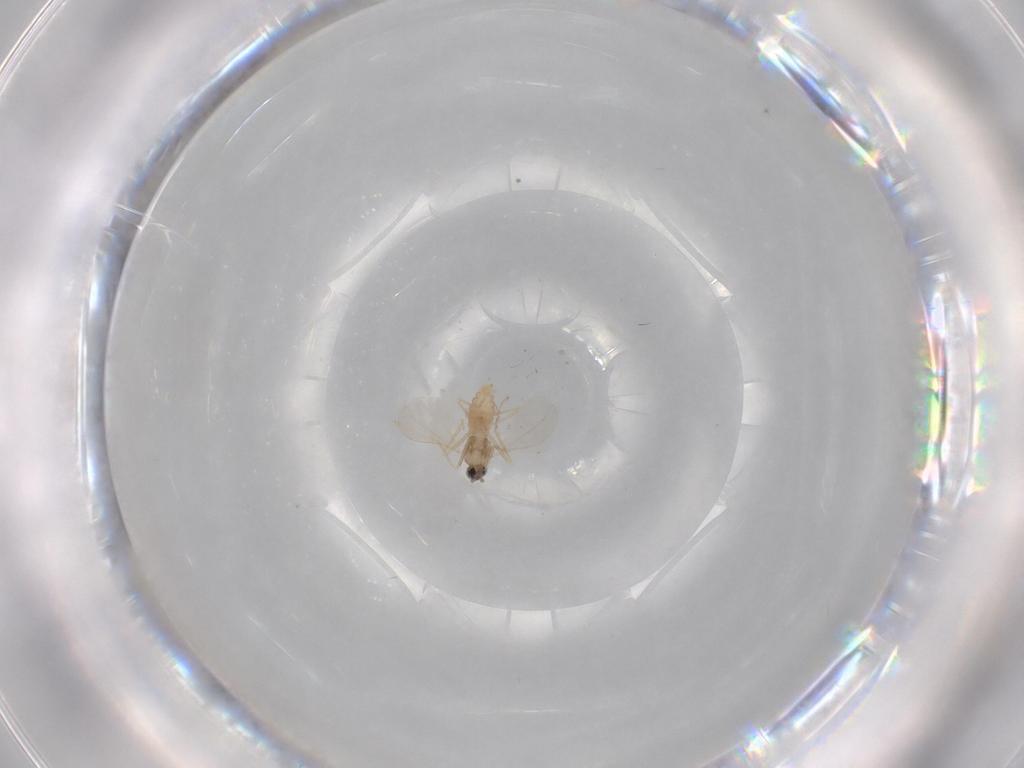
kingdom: Animalia
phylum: Arthropoda
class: Insecta
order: Diptera
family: Cecidomyiidae
